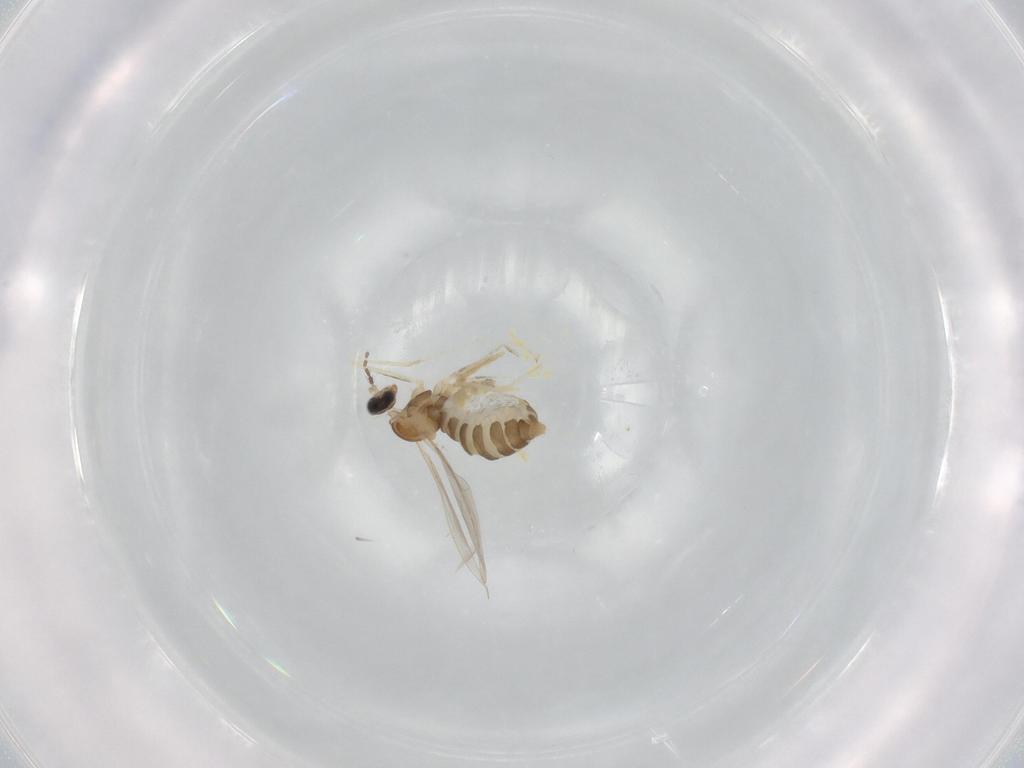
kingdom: Animalia
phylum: Arthropoda
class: Insecta
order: Diptera
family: Cecidomyiidae
